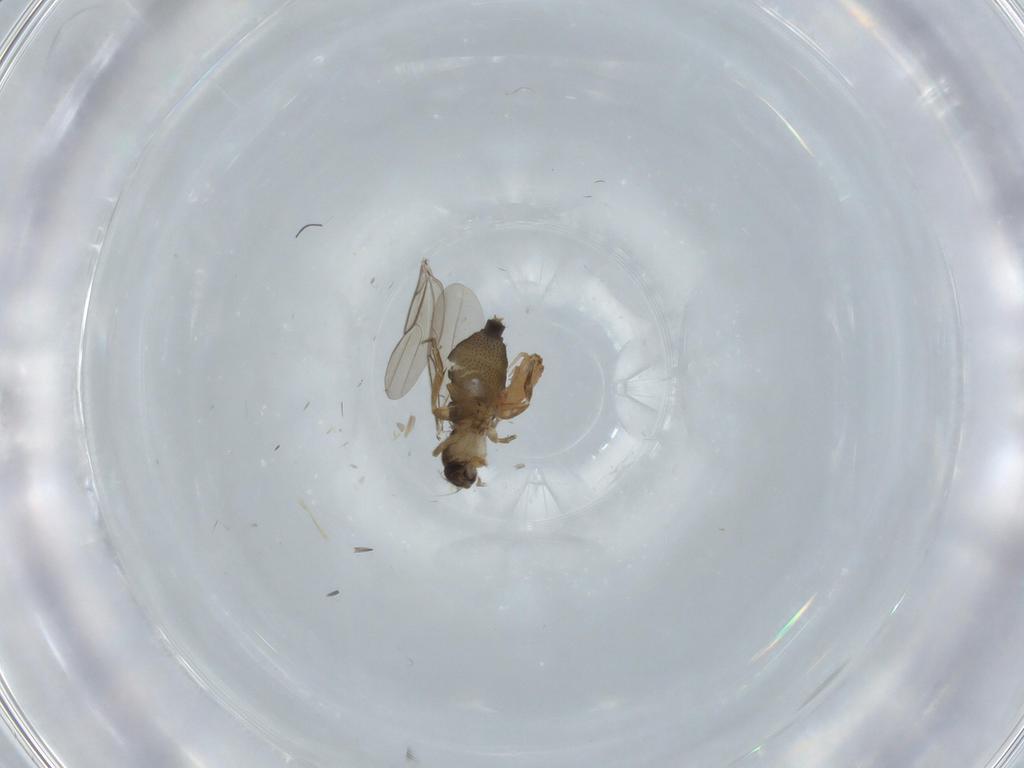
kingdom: Animalia
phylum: Arthropoda
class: Insecta
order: Diptera
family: Phoridae
